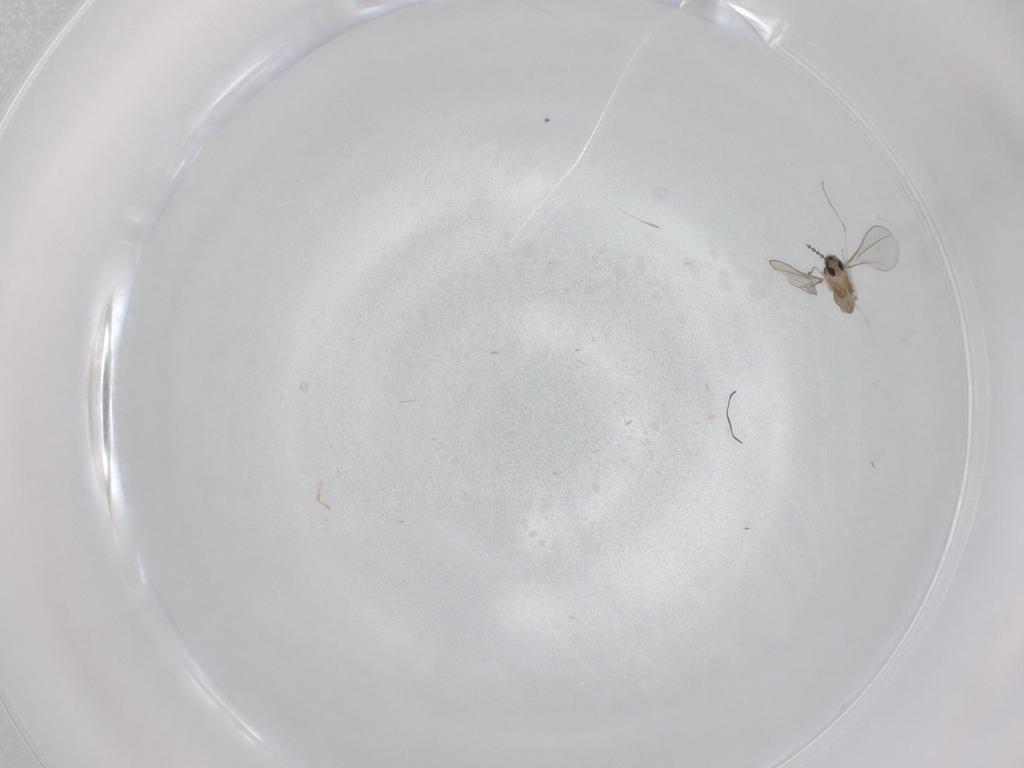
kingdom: Animalia
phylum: Arthropoda
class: Insecta
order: Diptera
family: Cecidomyiidae
